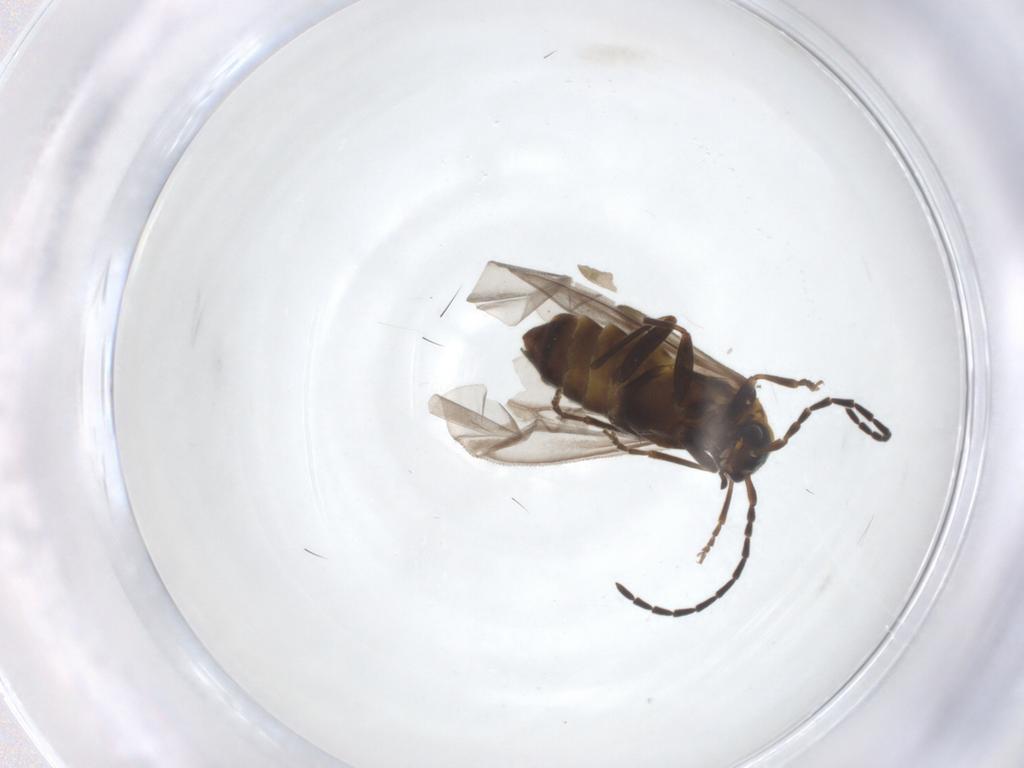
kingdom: Animalia
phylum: Arthropoda
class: Insecta
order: Coleoptera
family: Cantharidae
